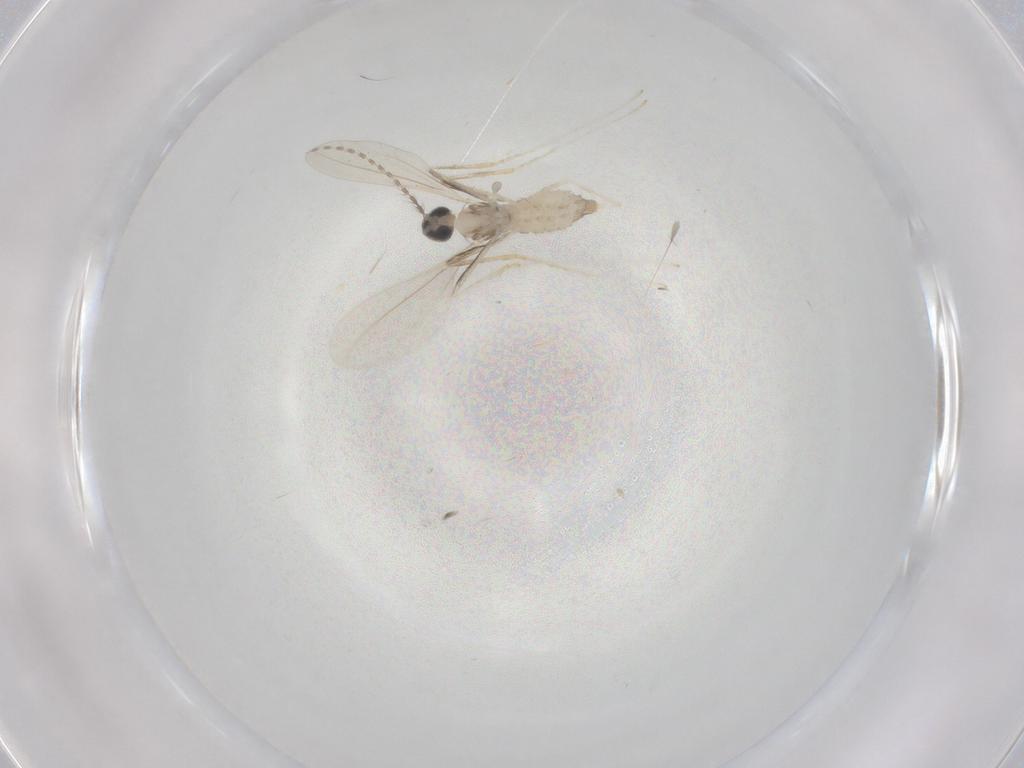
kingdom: Animalia
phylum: Arthropoda
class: Insecta
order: Diptera
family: Cecidomyiidae
